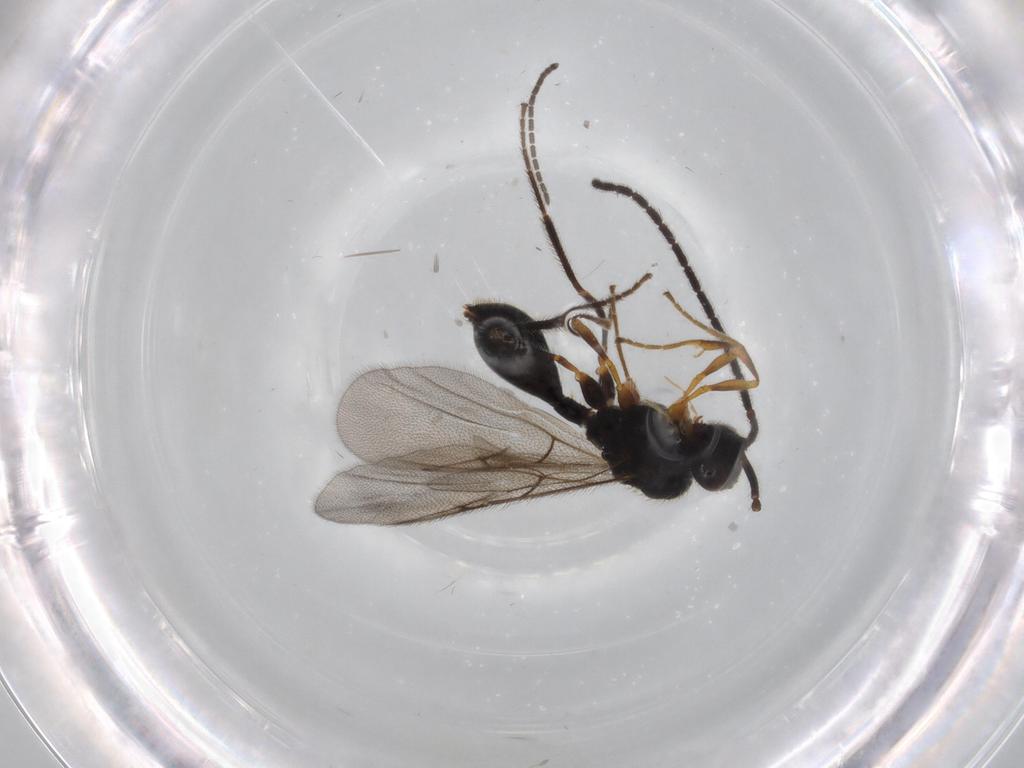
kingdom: Animalia
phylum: Arthropoda
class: Insecta
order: Hymenoptera
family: Diapriidae
